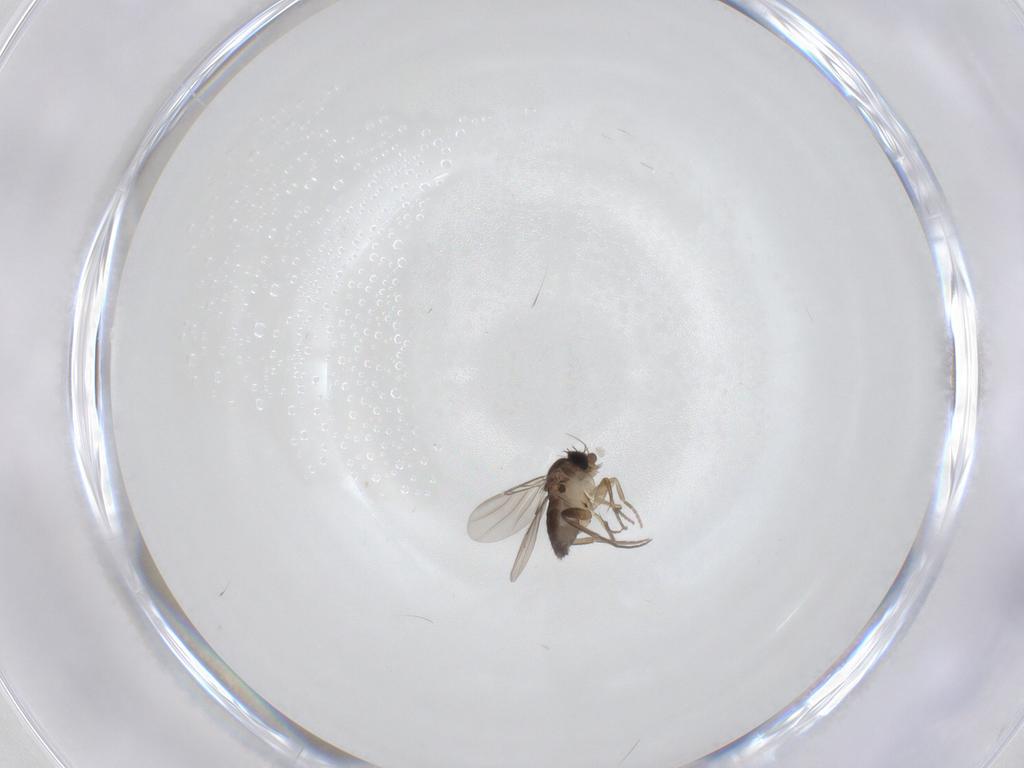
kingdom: Animalia
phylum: Arthropoda
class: Insecta
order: Diptera
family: Phoridae
